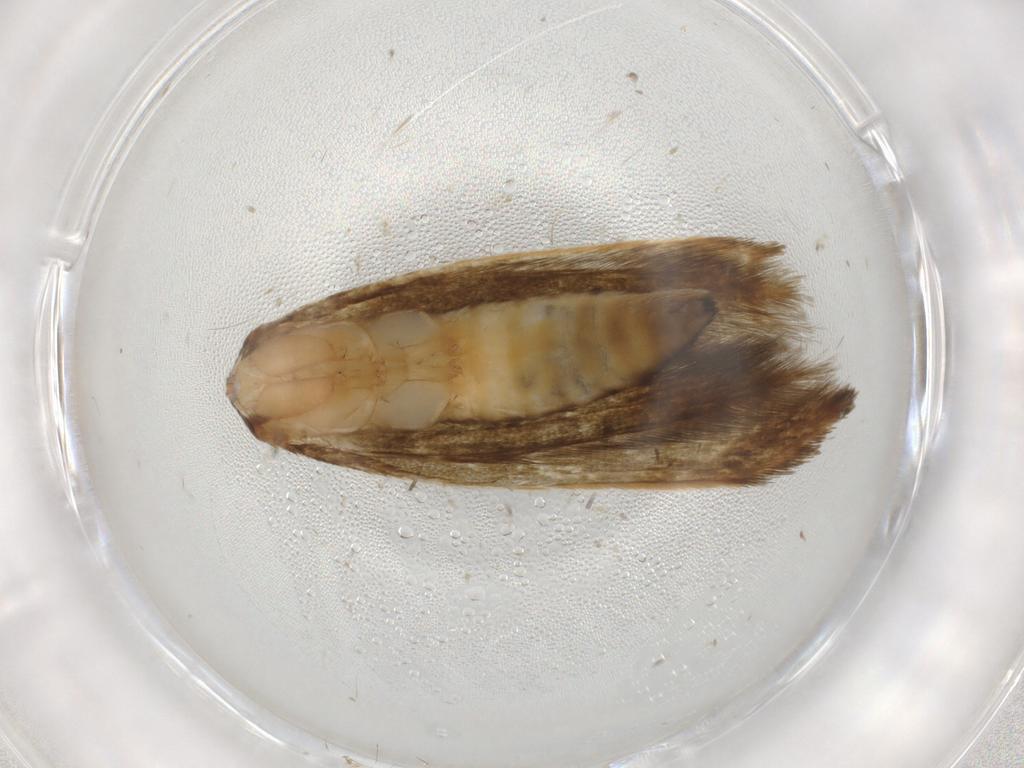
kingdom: Animalia
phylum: Arthropoda
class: Insecta
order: Lepidoptera
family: Tineidae
